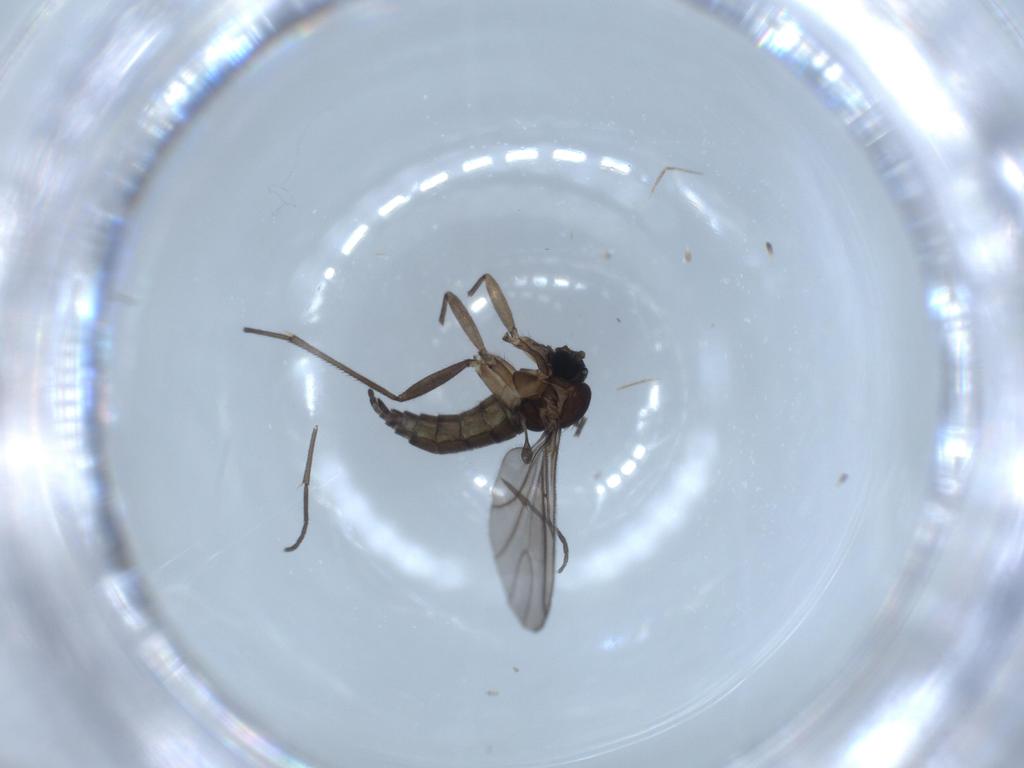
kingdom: Animalia
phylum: Arthropoda
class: Insecta
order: Diptera
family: Sciaridae
